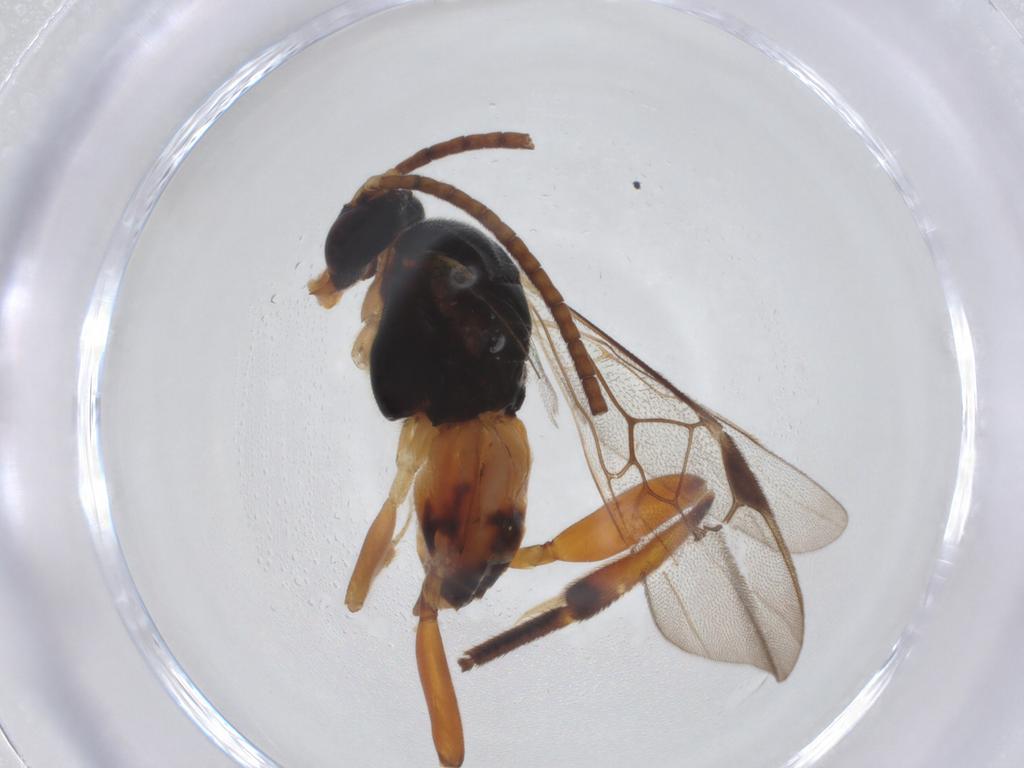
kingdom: Animalia
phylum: Arthropoda
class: Insecta
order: Hymenoptera
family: Braconidae
